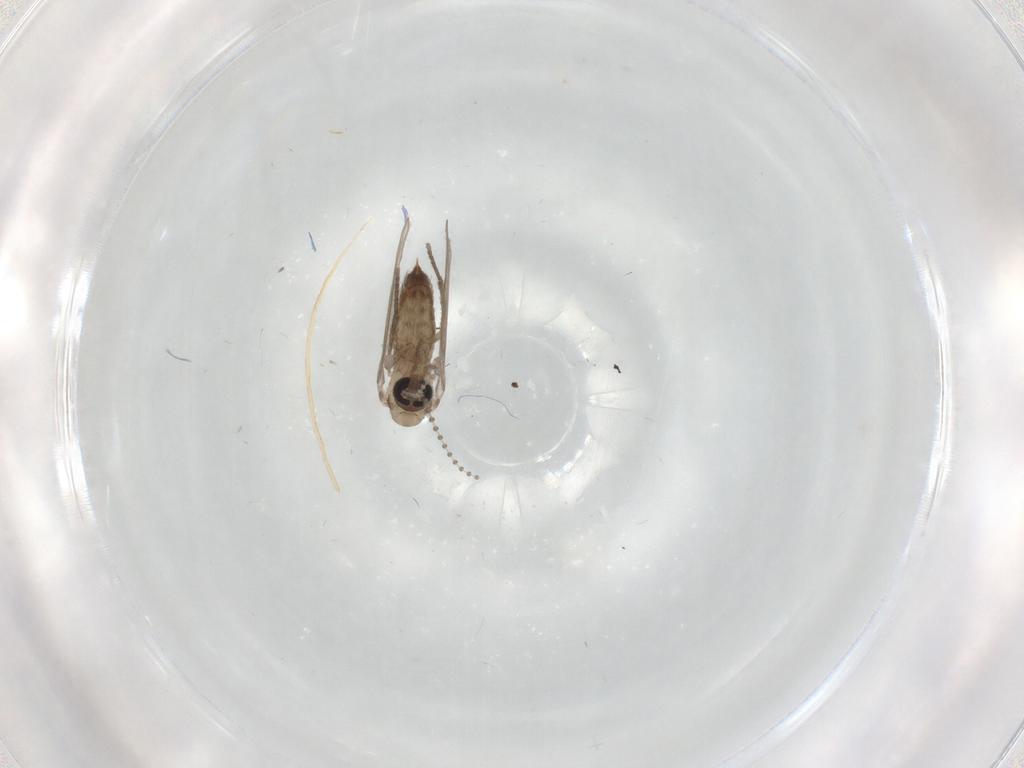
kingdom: Animalia
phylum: Arthropoda
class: Insecta
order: Diptera
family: Psychodidae
